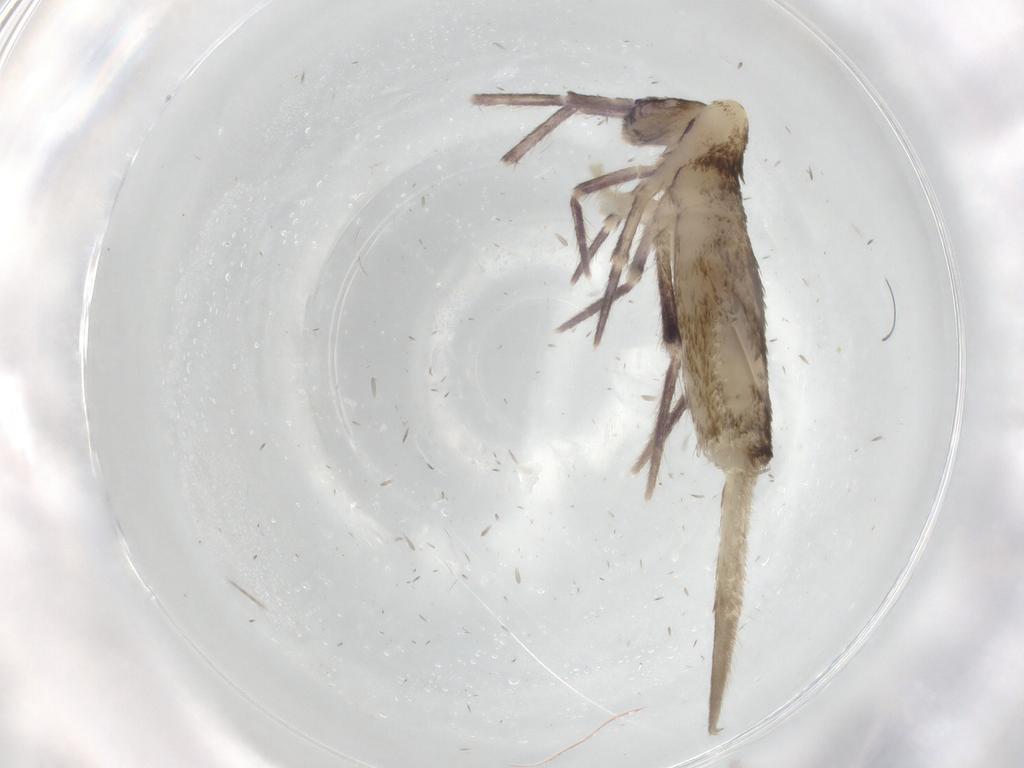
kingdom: Animalia
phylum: Arthropoda
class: Collembola
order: Entomobryomorpha
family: Entomobryidae
